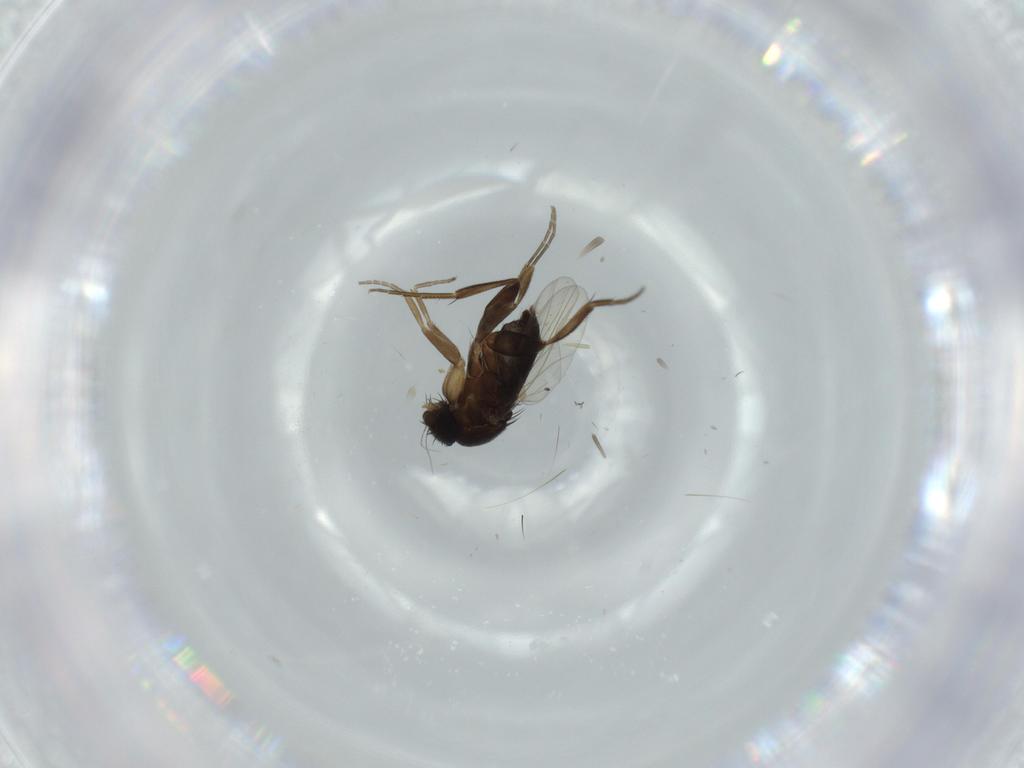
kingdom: Animalia
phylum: Arthropoda
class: Insecta
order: Diptera
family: Phoridae
